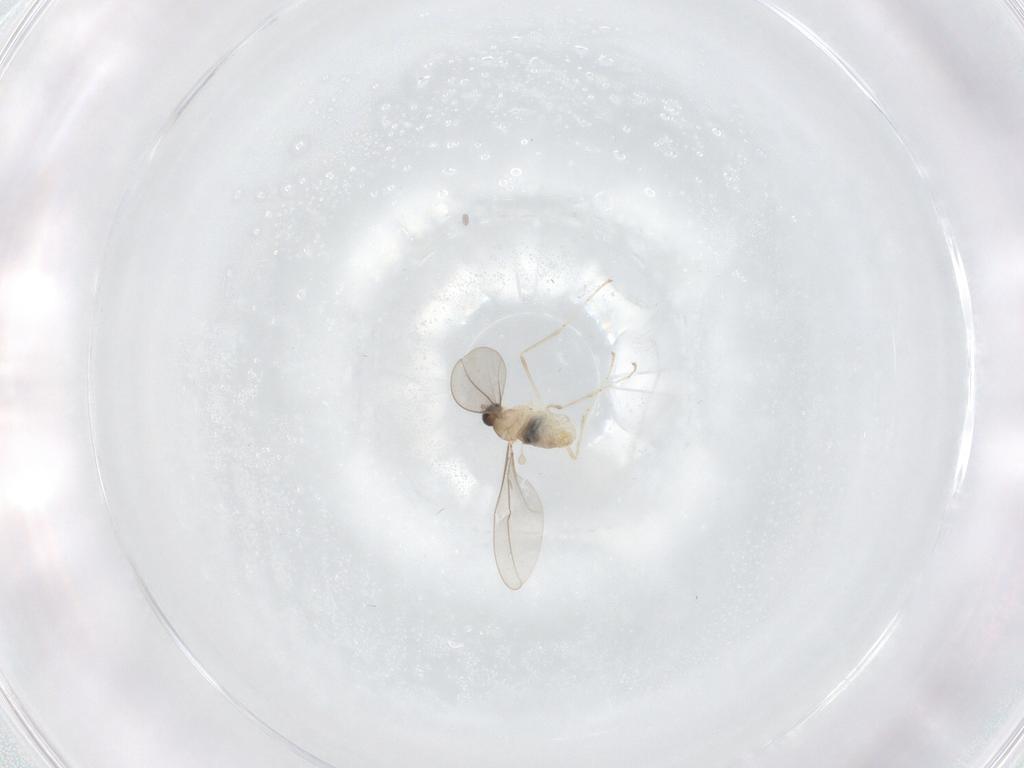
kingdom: Animalia
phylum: Arthropoda
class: Insecta
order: Diptera
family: Cecidomyiidae
